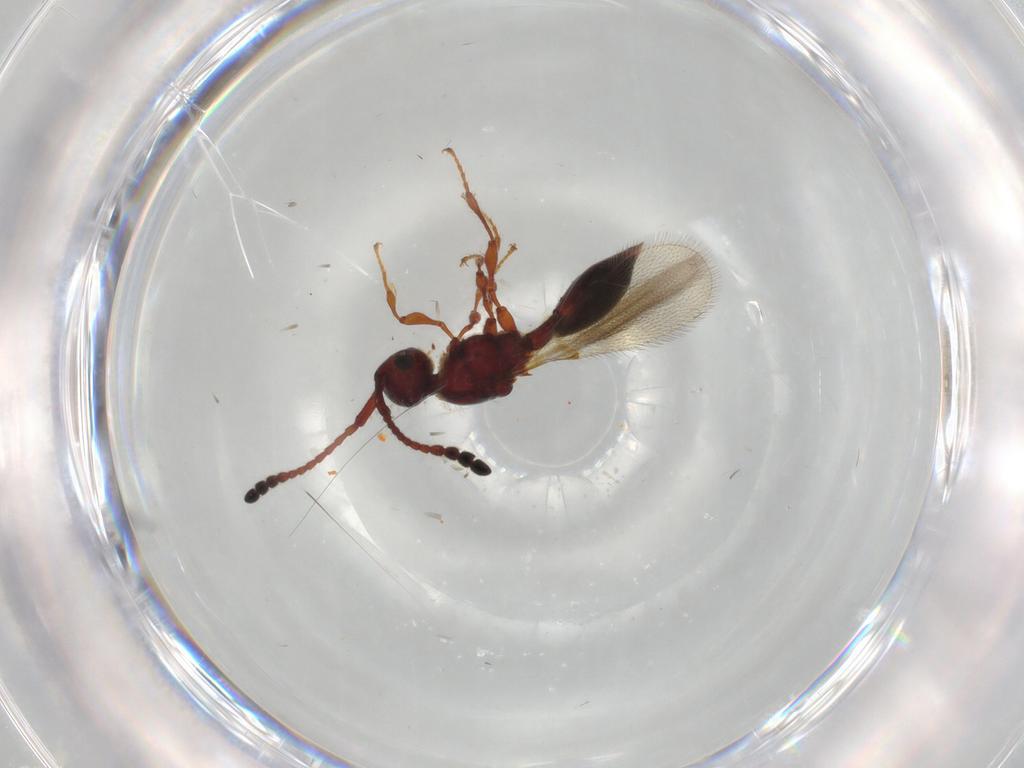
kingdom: Animalia
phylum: Arthropoda
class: Insecta
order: Hymenoptera
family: Diapriidae
